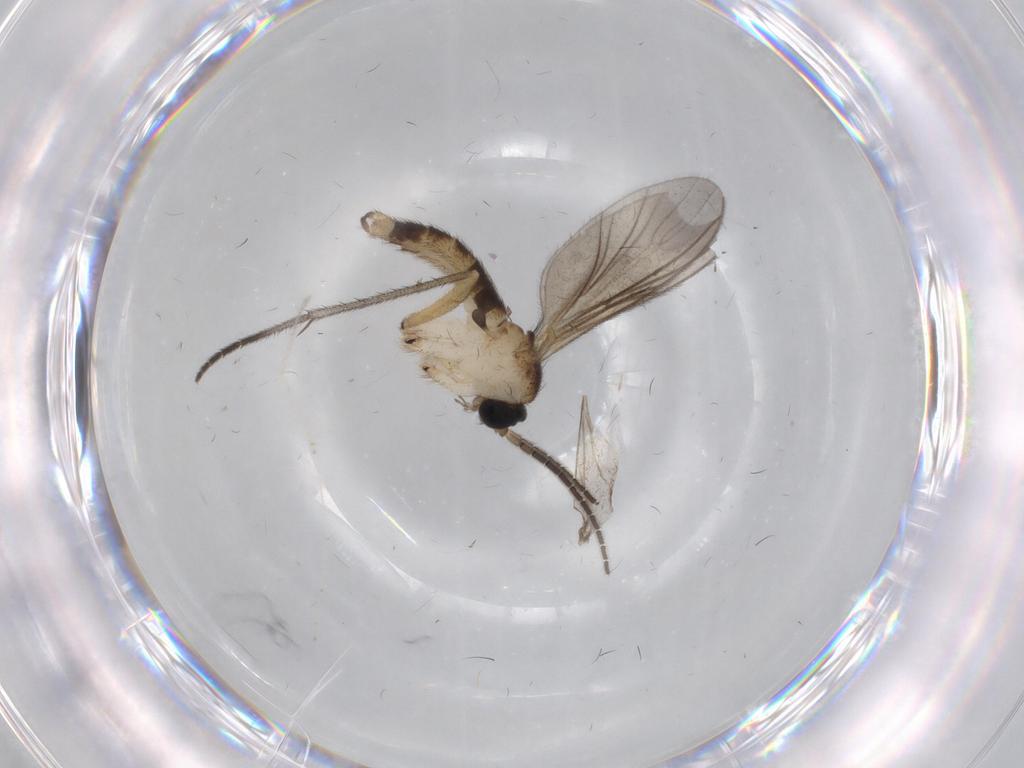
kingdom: Animalia
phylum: Arthropoda
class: Insecta
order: Diptera
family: Sciaridae
